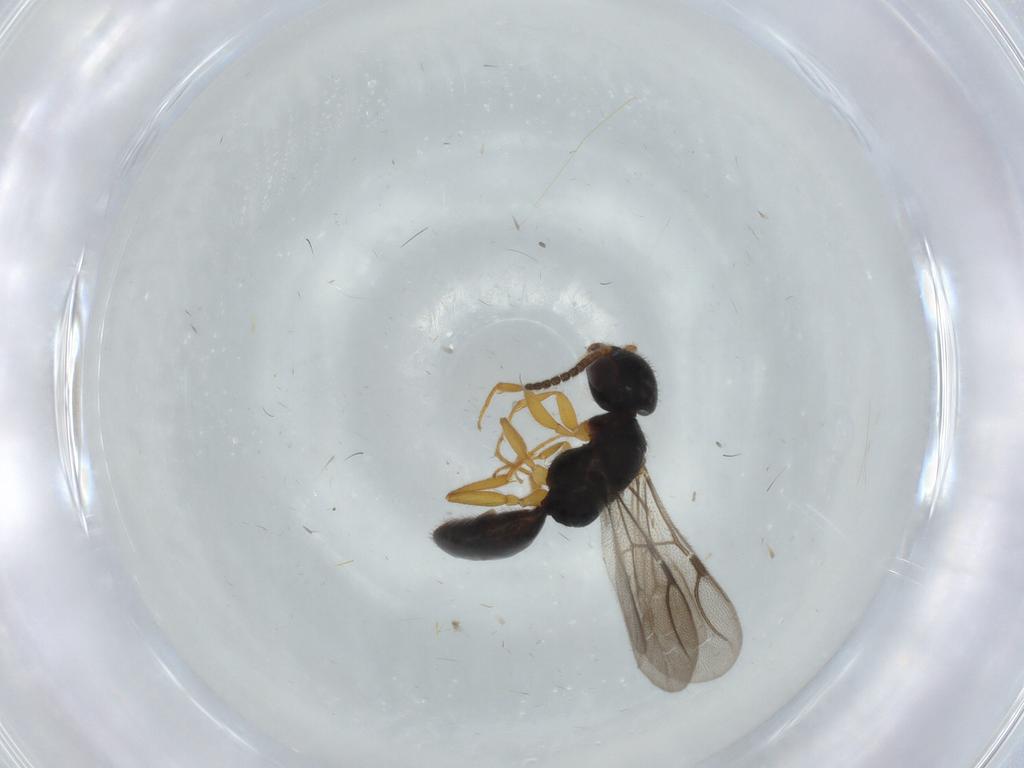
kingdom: Animalia
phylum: Arthropoda
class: Insecta
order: Hymenoptera
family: Bethylidae
